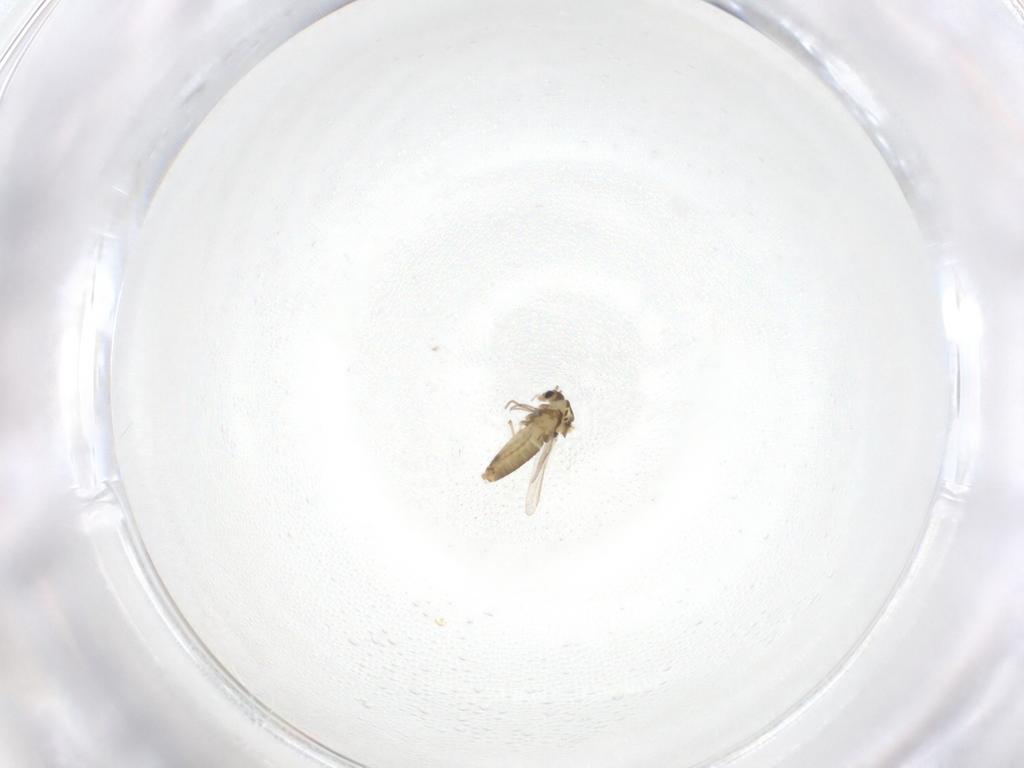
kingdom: Animalia
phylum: Arthropoda
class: Insecta
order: Diptera
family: Chironomidae
